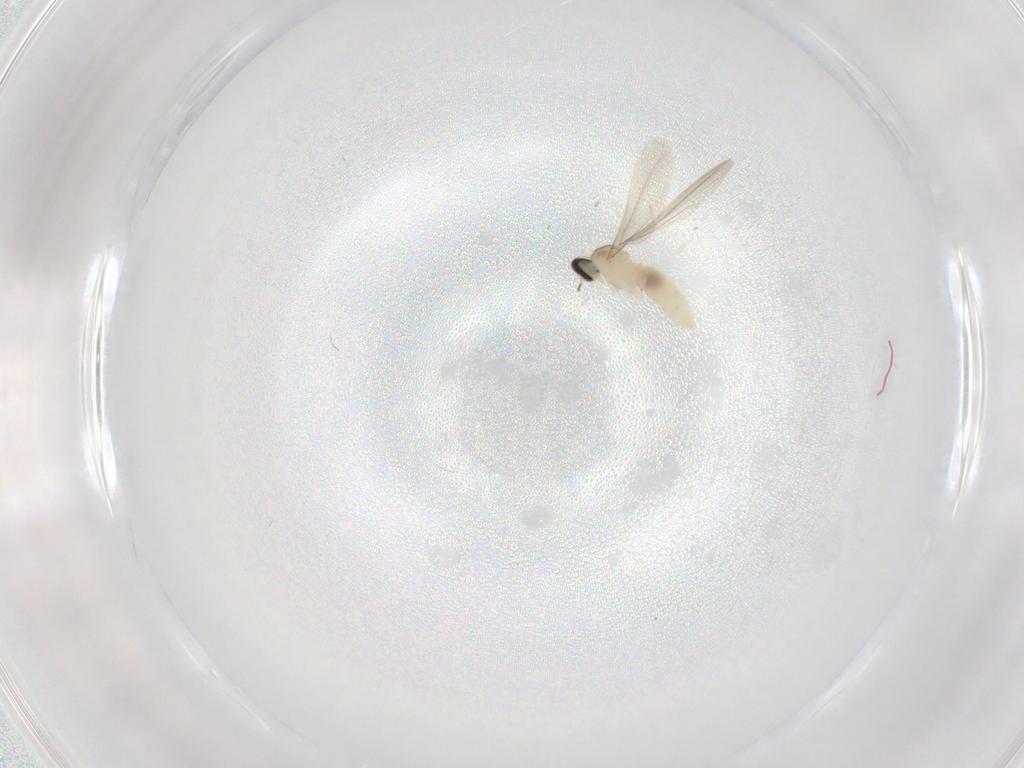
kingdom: Animalia
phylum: Arthropoda
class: Insecta
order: Diptera
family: Cecidomyiidae
